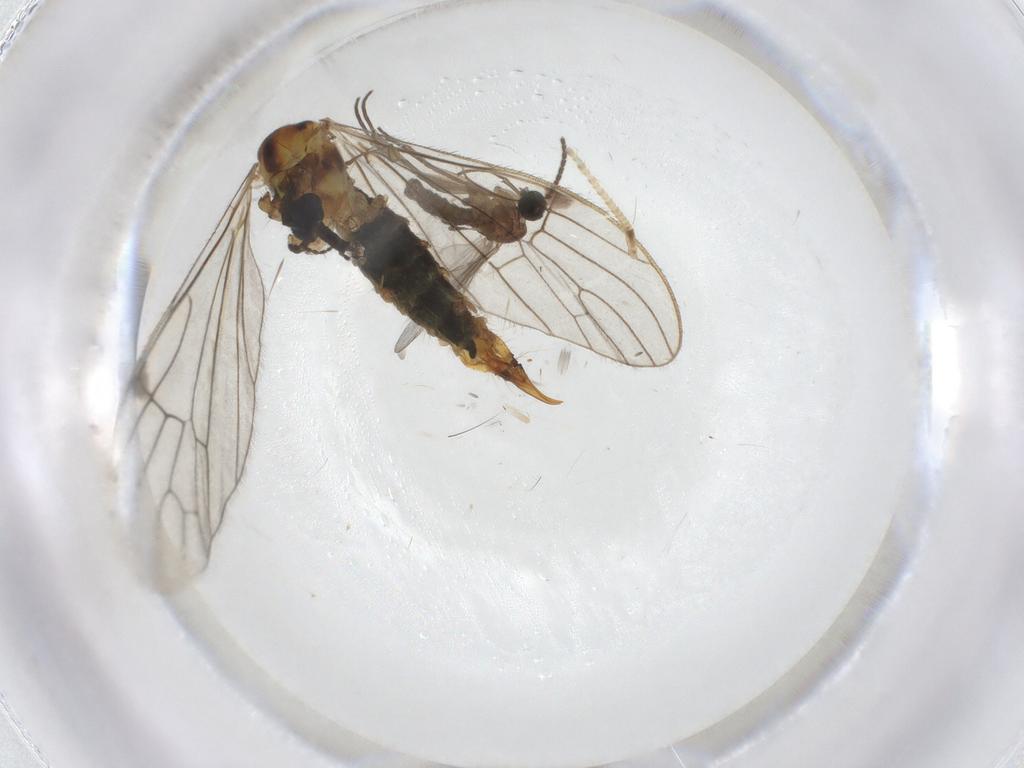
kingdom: Animalia
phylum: Arthropoda
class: Insecta
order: Diptera
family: Limoniidae
